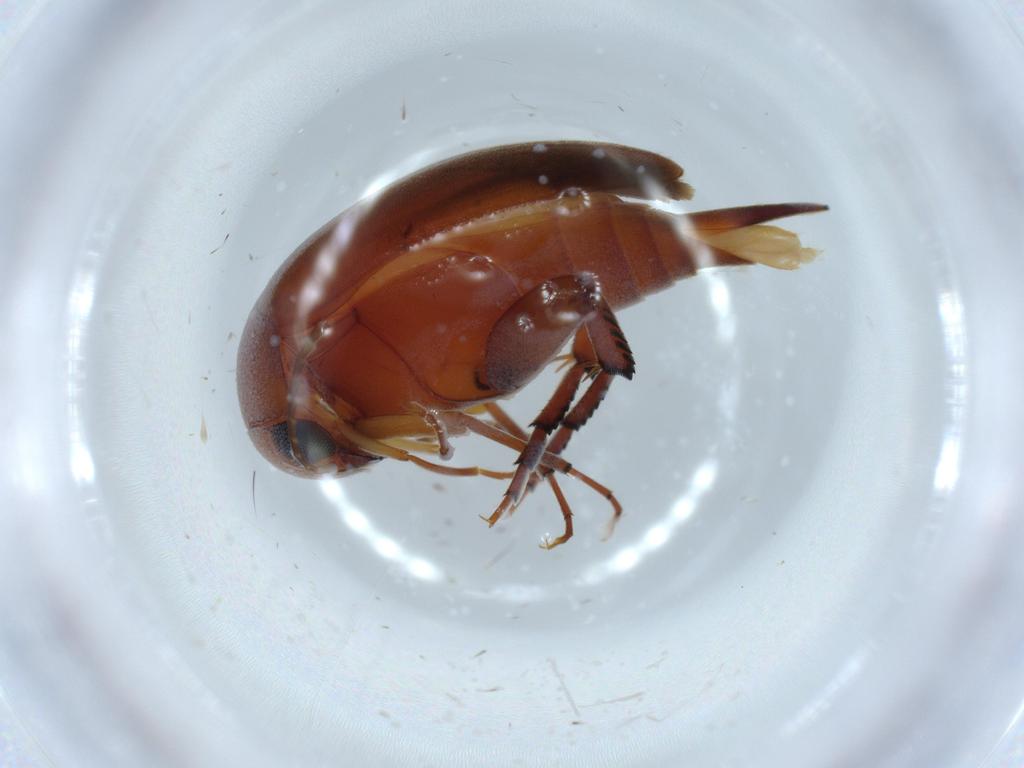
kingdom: Animalia
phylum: Arthropoda
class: Insecta
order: Coleoptera
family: Mordellidae
